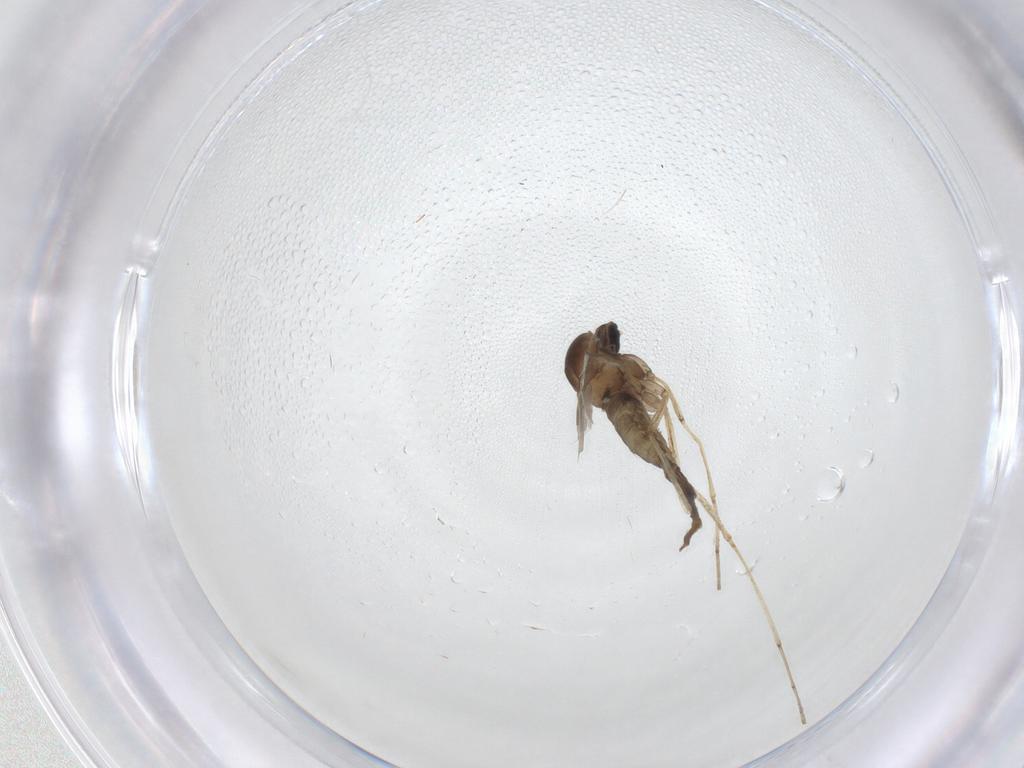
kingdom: Animalia
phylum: Arthropoda
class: Insecta
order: Diptera
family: Cecidomyiidae
